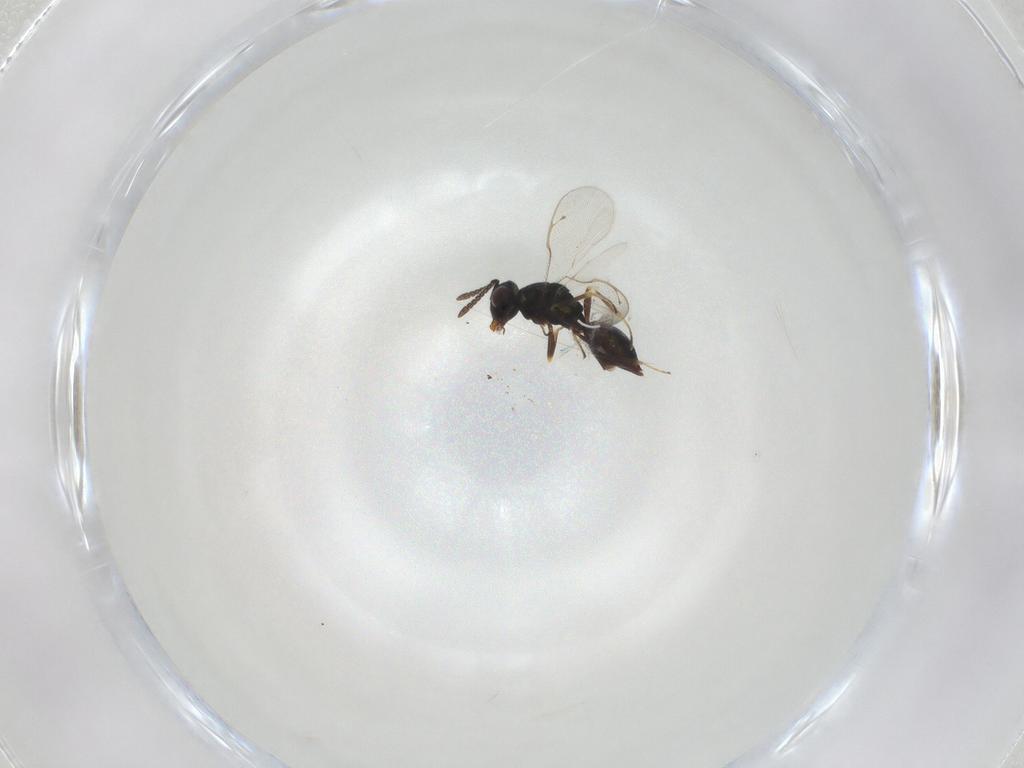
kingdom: Animalia
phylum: Arthropoda
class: Insecta
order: Hymenoptera
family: Pteromalidae
